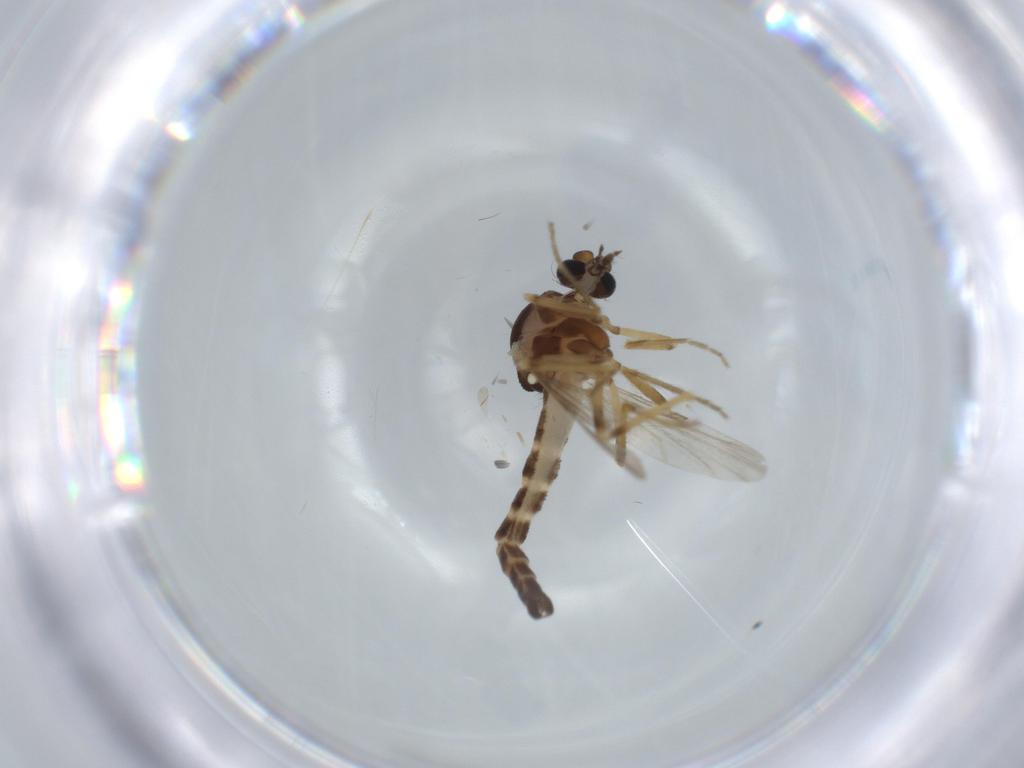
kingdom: Animalia
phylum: Arthropoda
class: Insecta
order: Diptera
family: Ceratopogonidae
